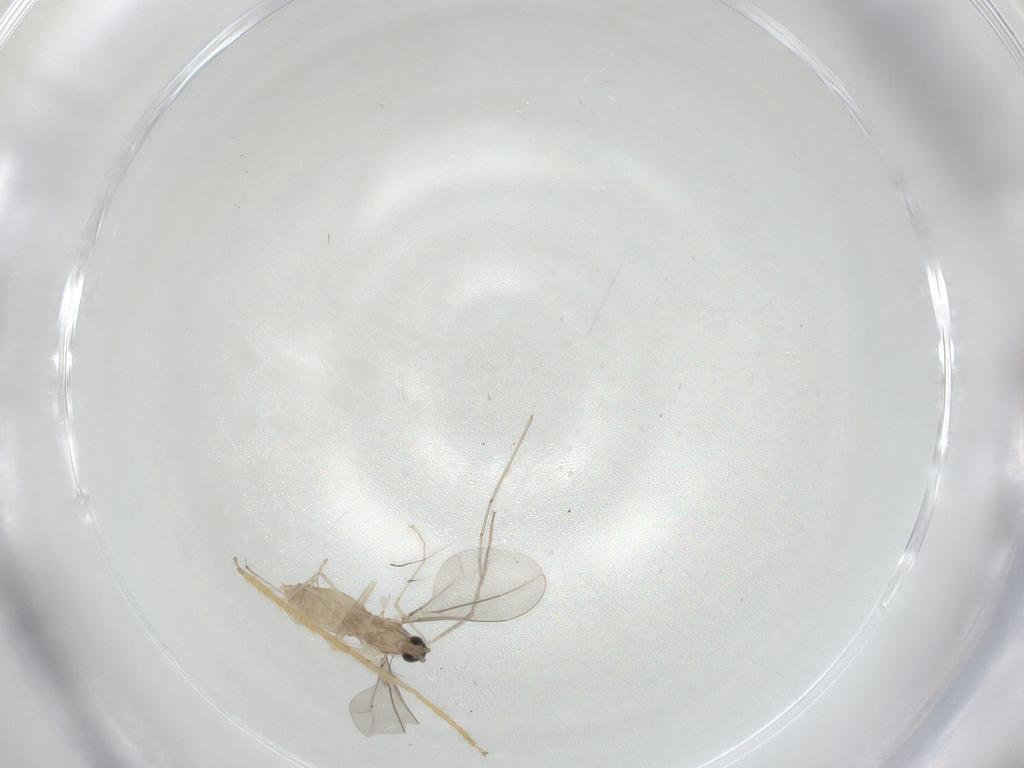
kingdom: Animalia
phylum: Arthropoda
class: Insecta
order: Diptera
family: Cecidomyiidae
